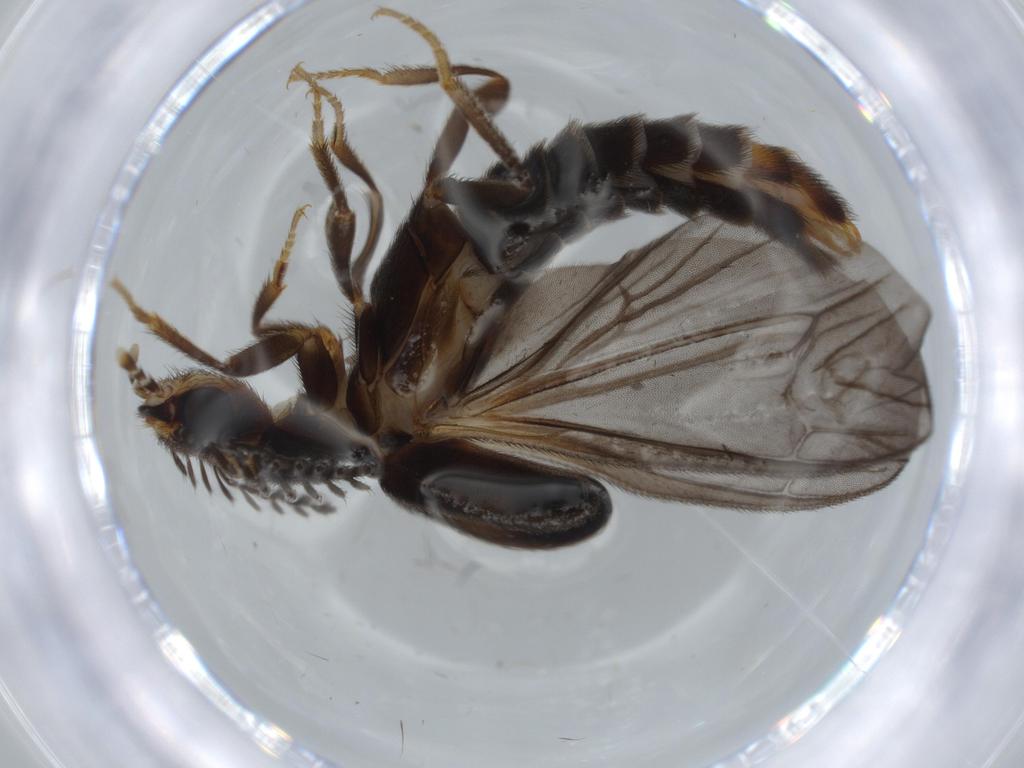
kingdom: Animalia
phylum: Arthropoda
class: Insecta
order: Coleoptera
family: Phengodidae
